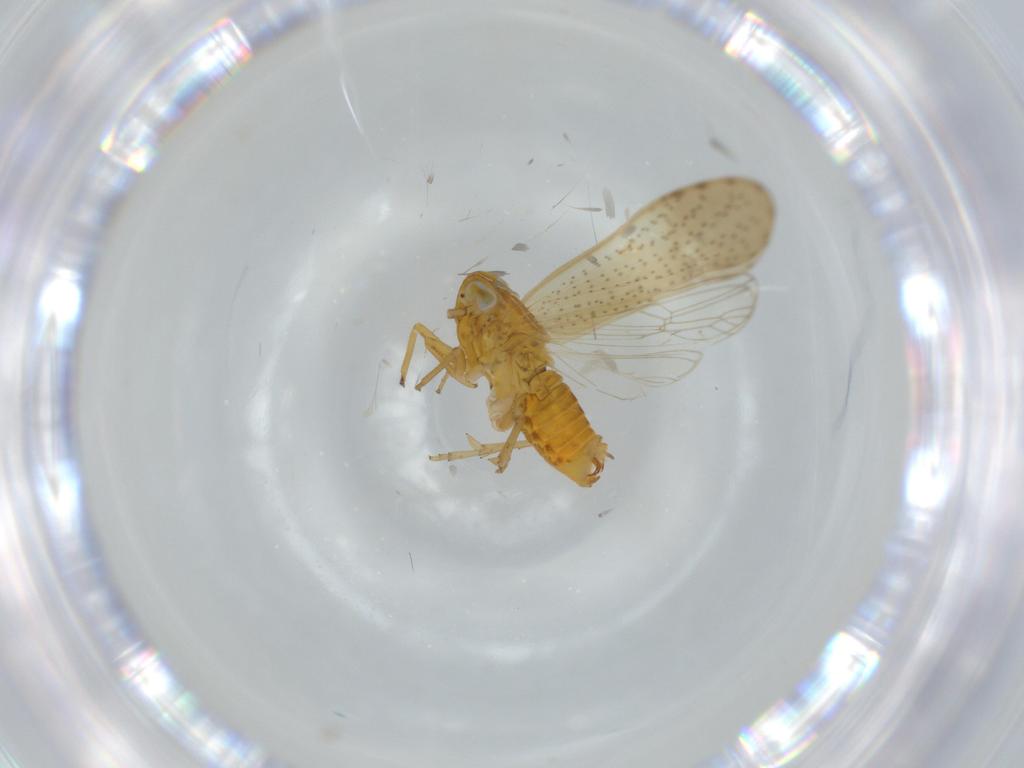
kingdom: Animalia
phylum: Arthropoda
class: Insecta
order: Hemiptera
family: Delphacidae
